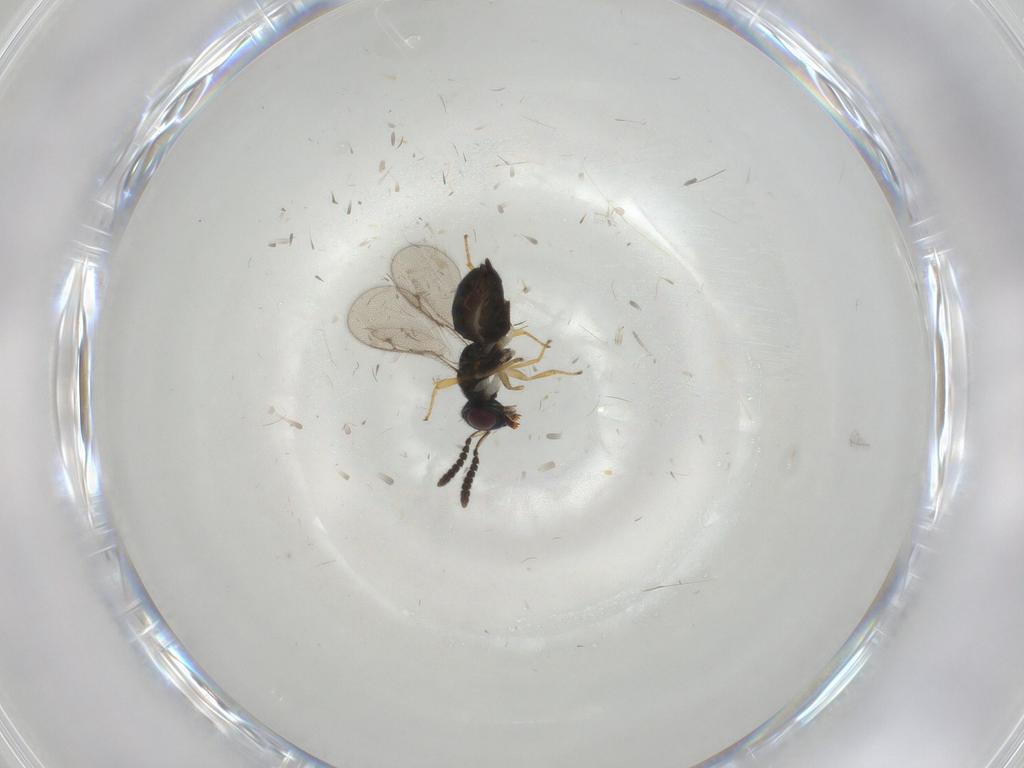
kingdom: Animalia
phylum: Arthropoda
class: Insecta
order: Hymenoptera
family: Pirenidae
